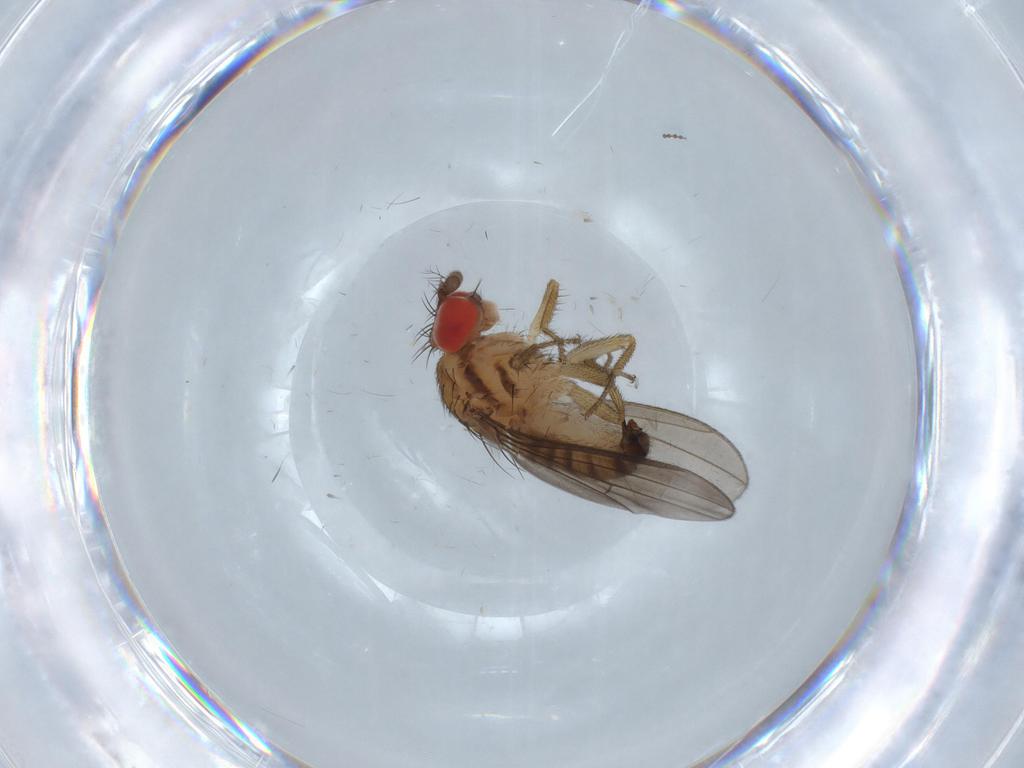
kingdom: Animalia
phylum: Arthropoda
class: Insecta
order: Diptera
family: Drosophilidae
